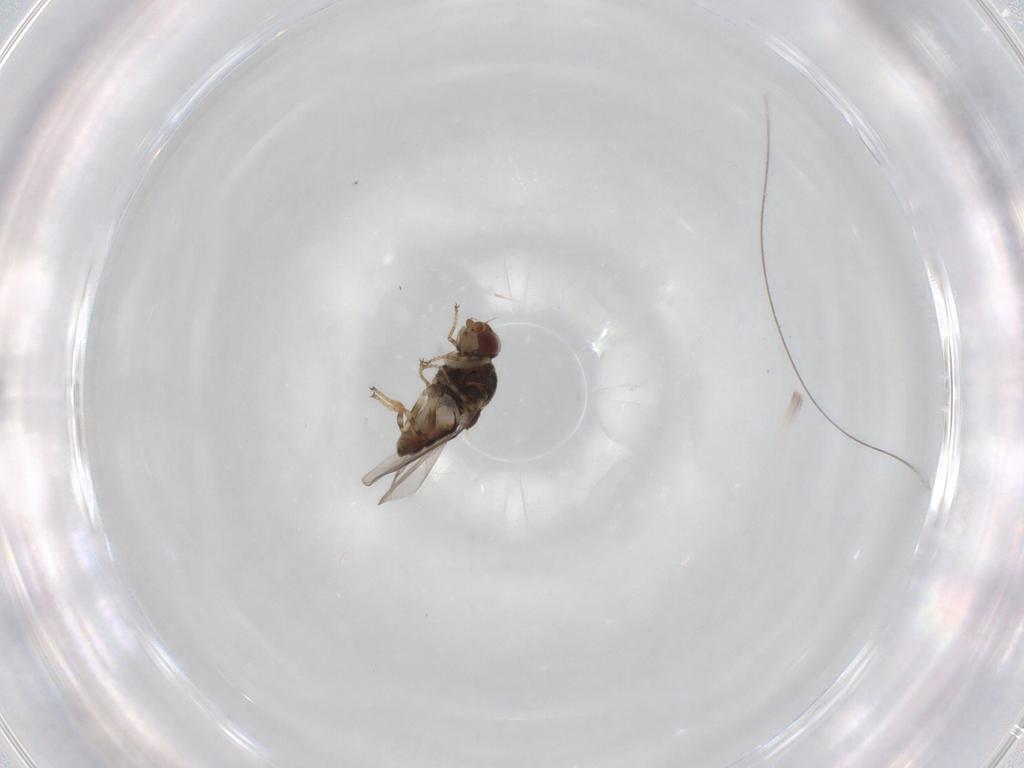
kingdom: Animalia
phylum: Arthropoda
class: Insecta
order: Diptera
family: Chloropidae
